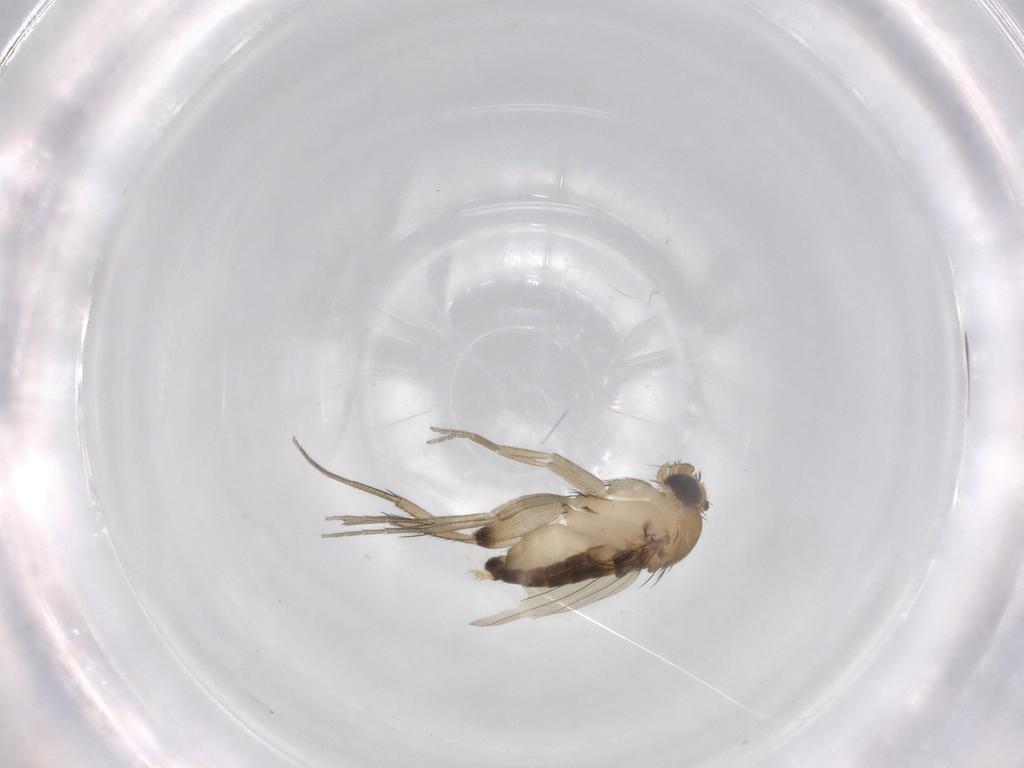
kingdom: Animalia
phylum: Arthropoda
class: Insecta
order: Diptera
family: Phoridae
